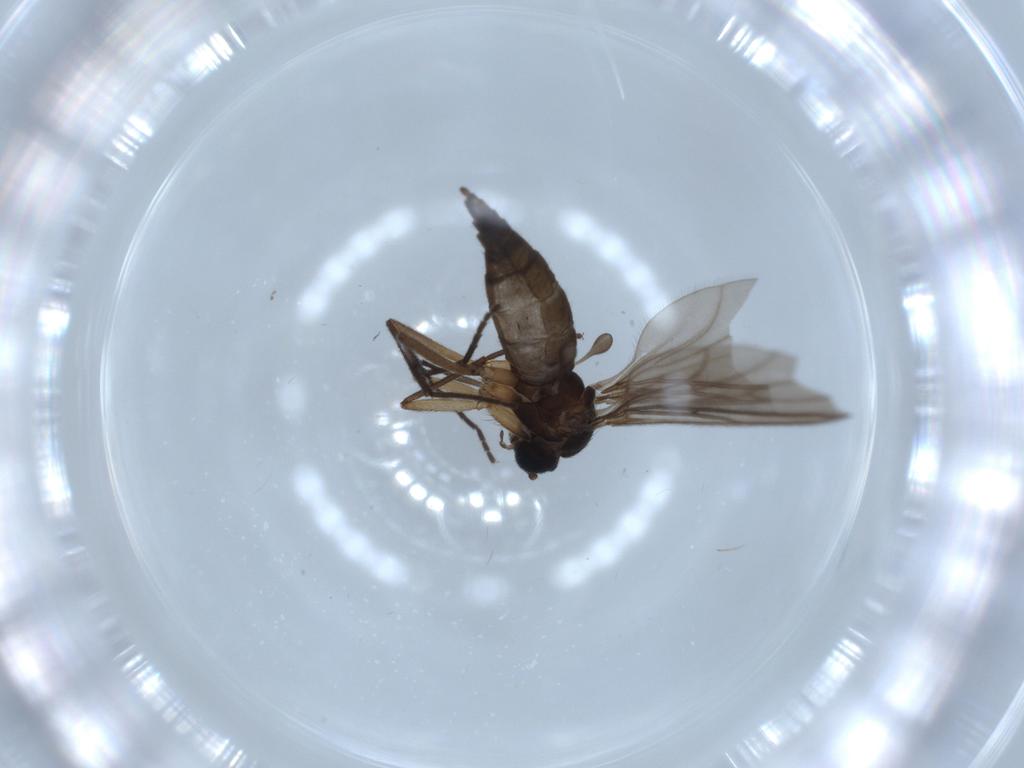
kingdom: Animalia
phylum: Arthropoda
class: Insecta
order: Diptera
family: Sciaridae
